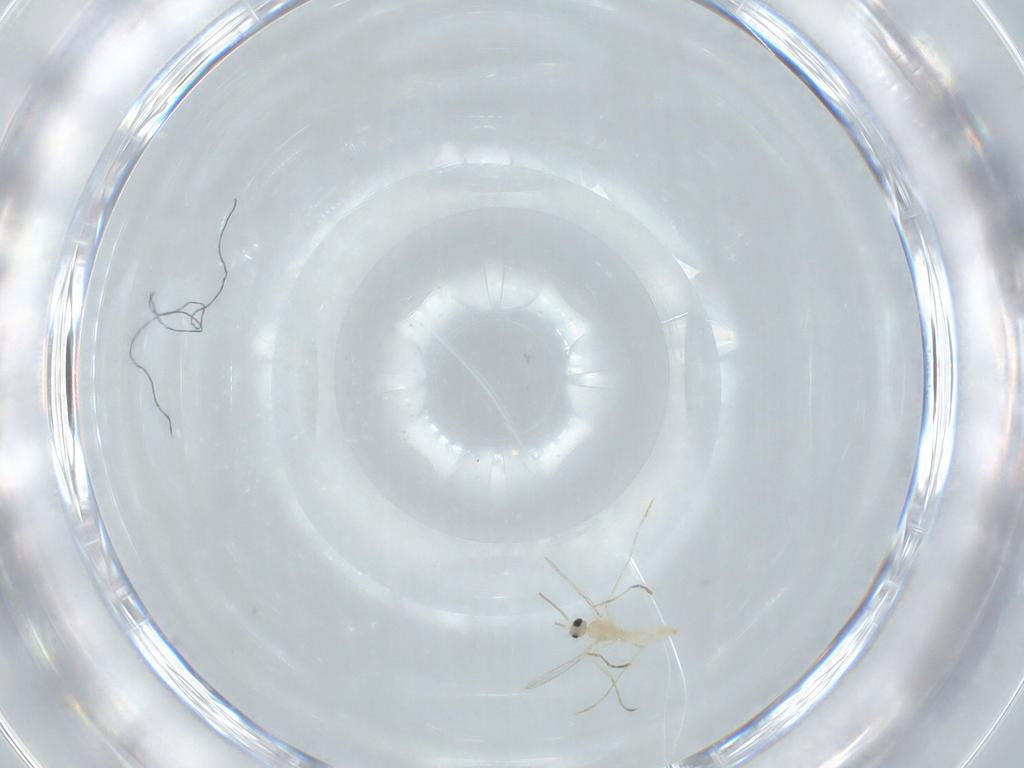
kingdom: Animalia
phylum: Arthropoda
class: Insecta
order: Diptera
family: Cecidomyiidae
